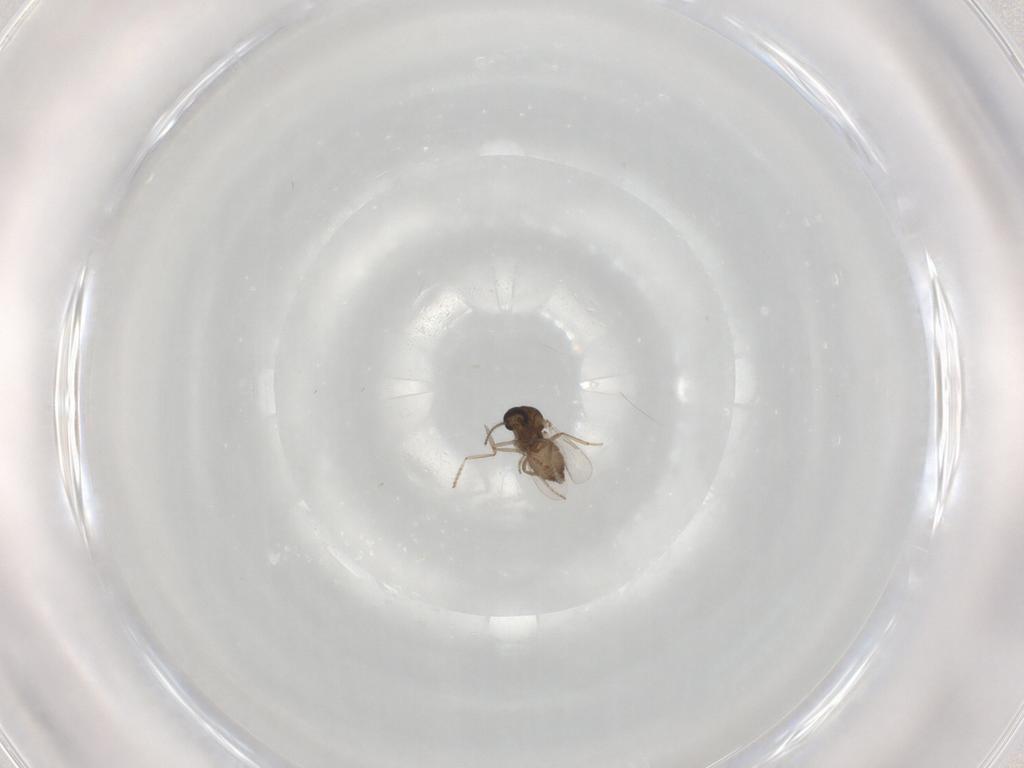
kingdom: Animalia
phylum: Arthropoda
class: Insecta
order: Diptera
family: Ceratopogonidae
